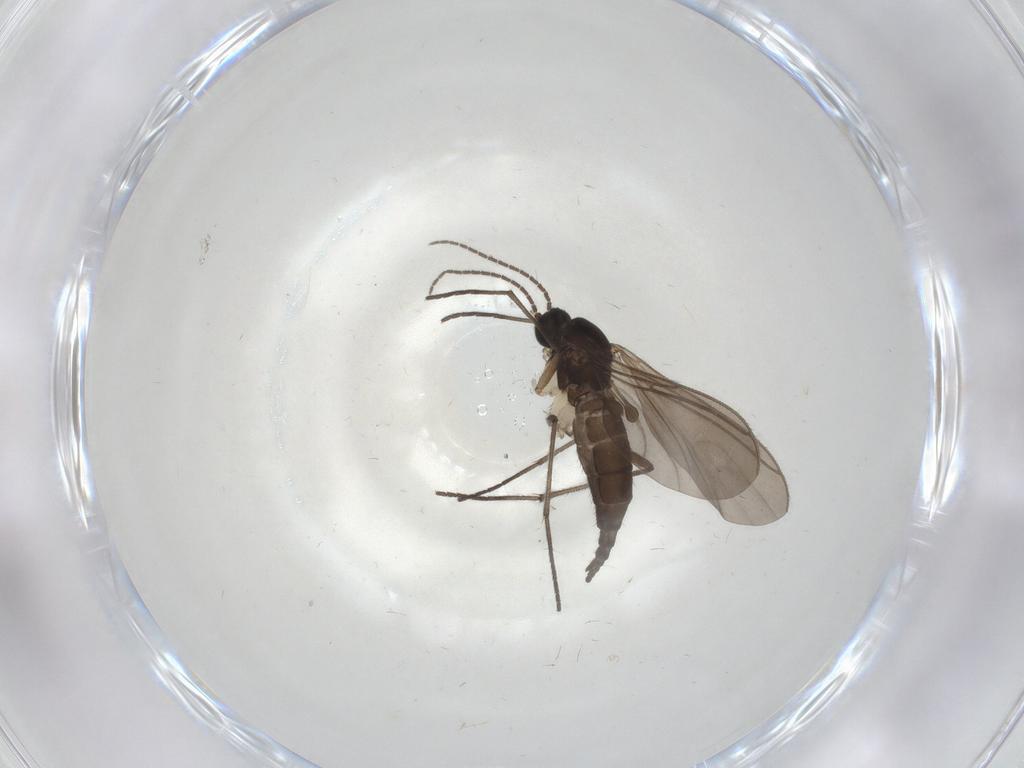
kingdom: Animalia
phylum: Arthropoda
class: Insecta
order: Diptera
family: Sciaridae
